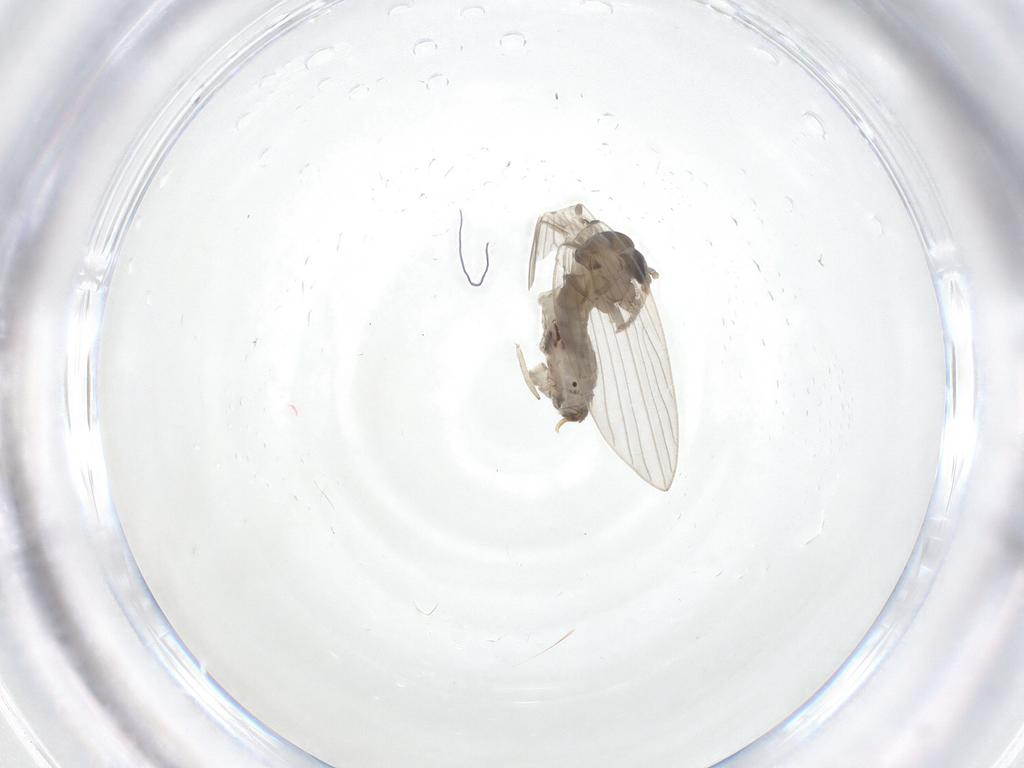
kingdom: Animalia
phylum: Arthropoda
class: Insecta
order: Diptera
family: Psychodidae
